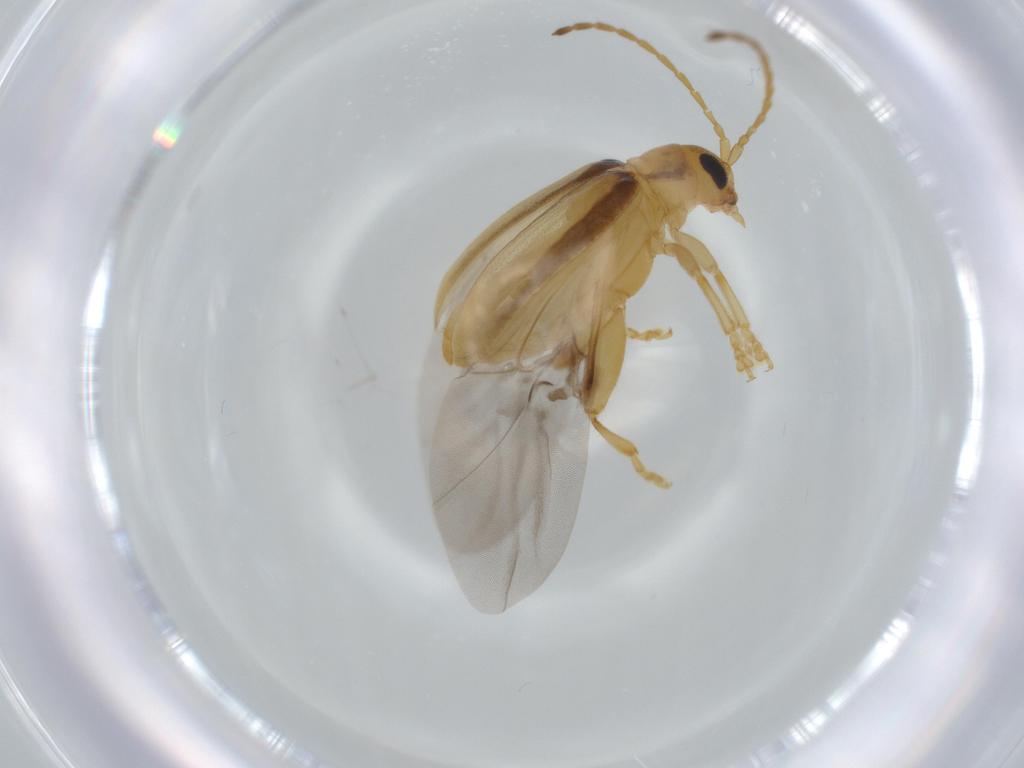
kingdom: Animalia
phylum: Arthropoda
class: Insecta
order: Coleoptera
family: Chrysomelidae
